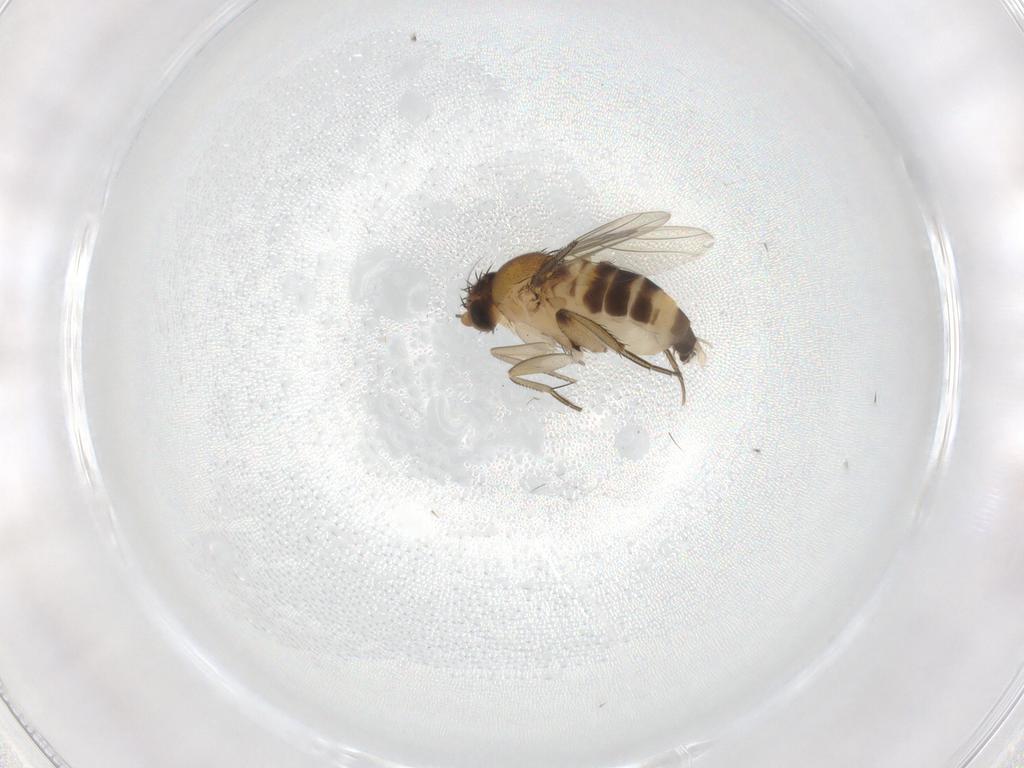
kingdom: Animalia
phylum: Arthropoda
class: Insecta
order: Diptera
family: Phoridae
